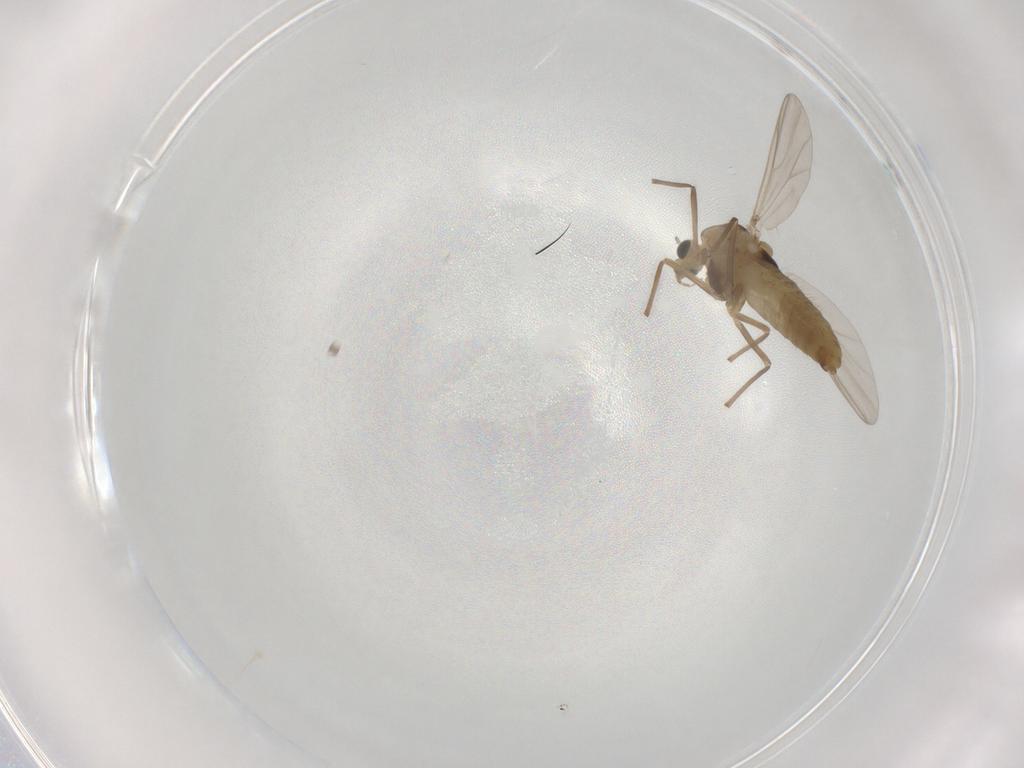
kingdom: Animalia
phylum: Arthropoda
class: Insecta
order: Diptera
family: Chironomidae
